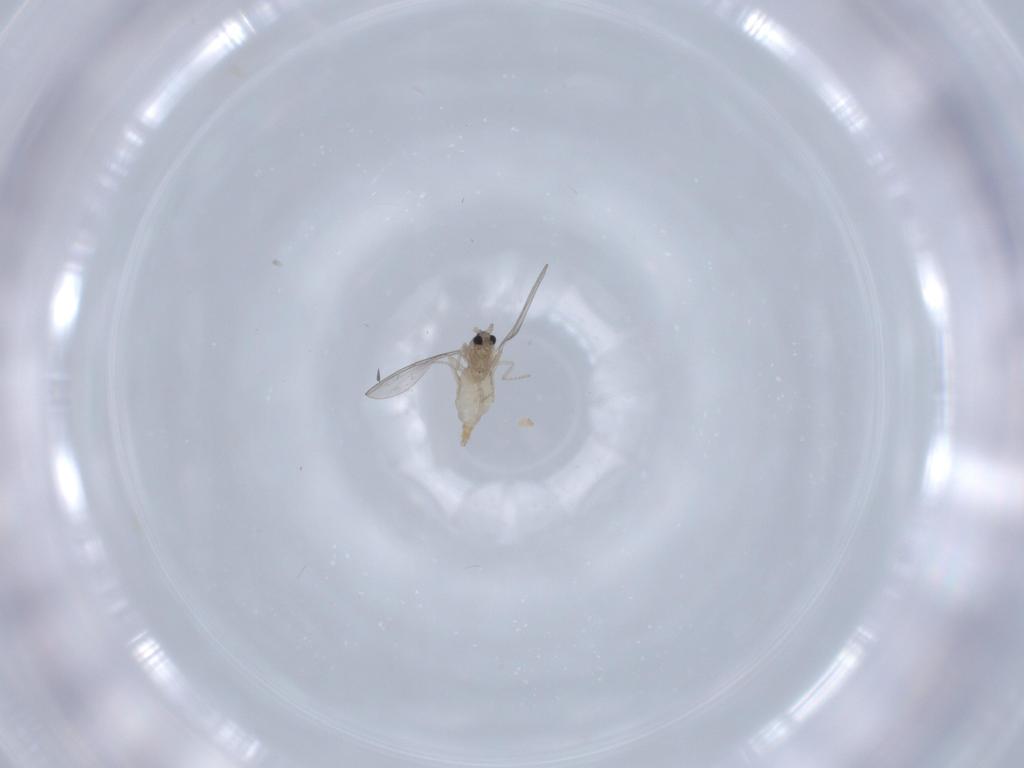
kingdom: Animalia
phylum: Arthropoda
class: Insecta
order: Diptera
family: Cecidomyiidae
